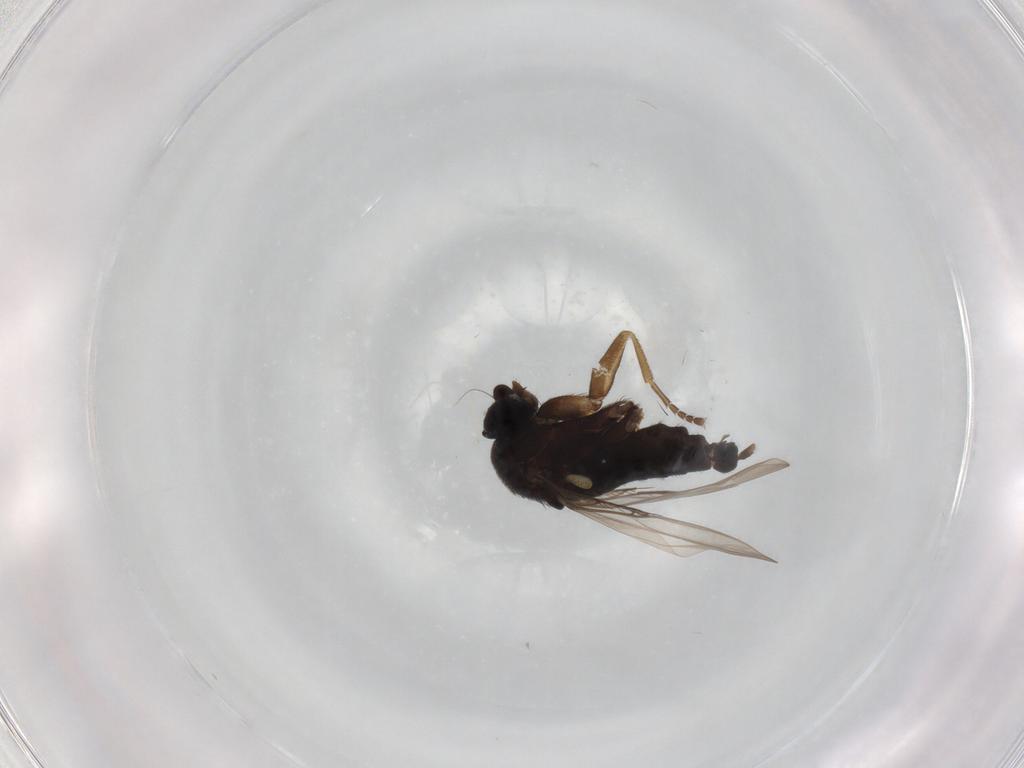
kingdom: Animalia
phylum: Arthropoda
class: Insecta
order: Diptera
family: Phoridae
